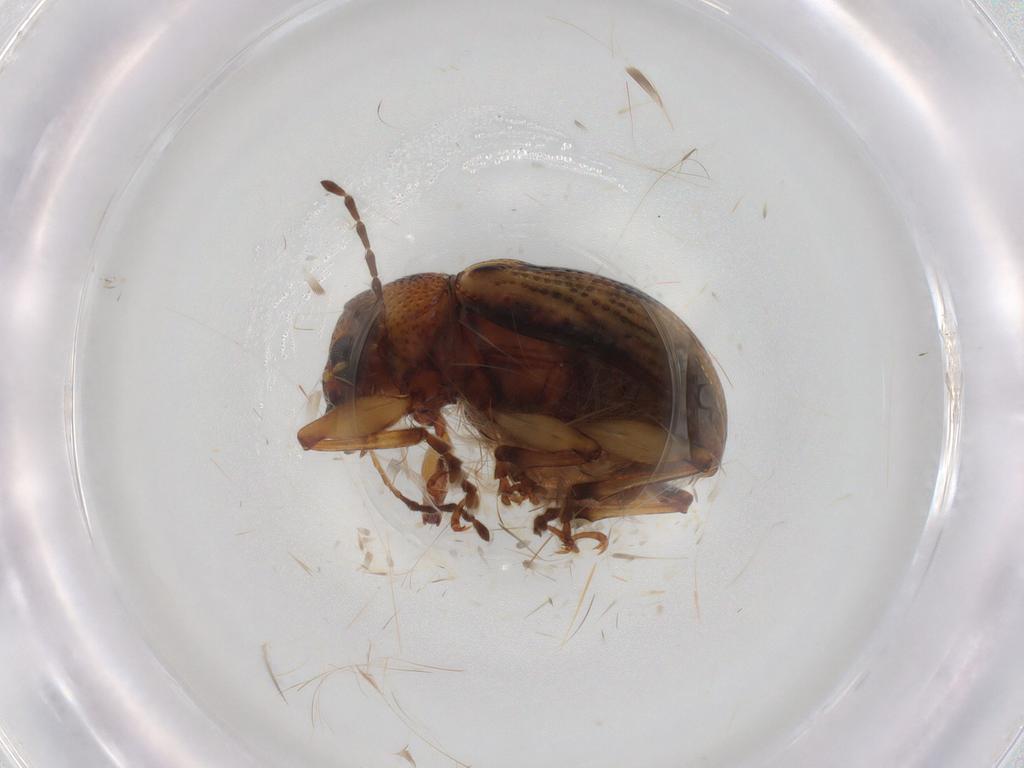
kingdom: Animalia
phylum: Arthropoda
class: Insecta
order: Coleoptera
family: Chrysomelidae
